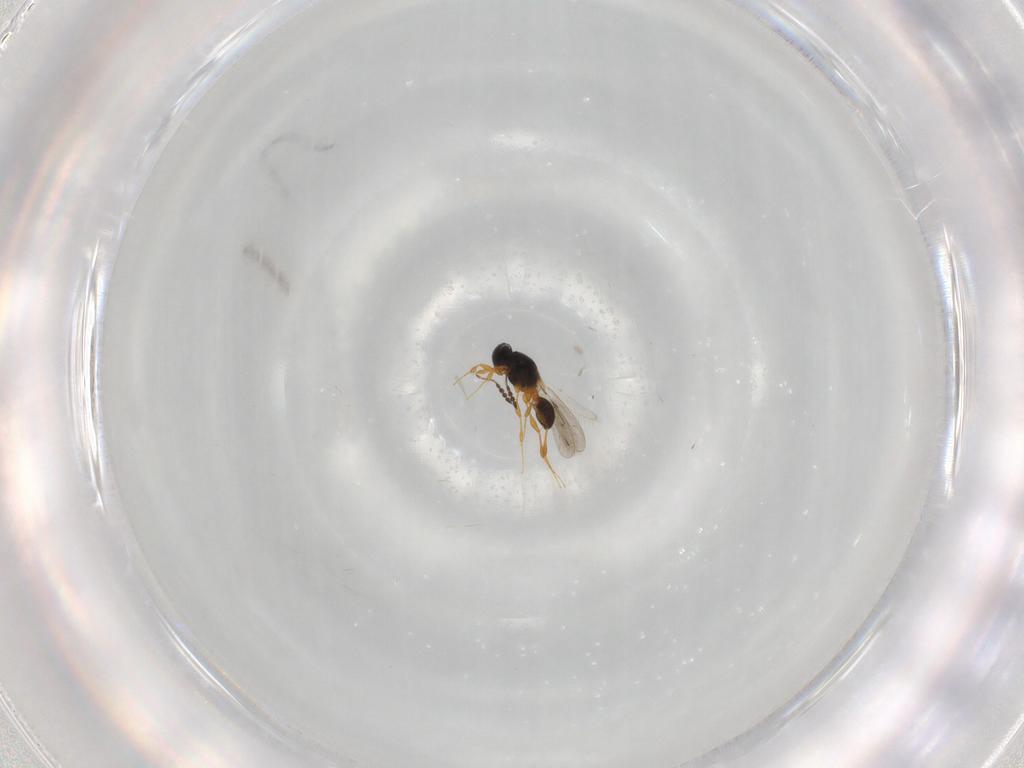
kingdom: Animalia
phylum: Arthropoda
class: Insecta
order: Hymenoptera
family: Platygastridae
